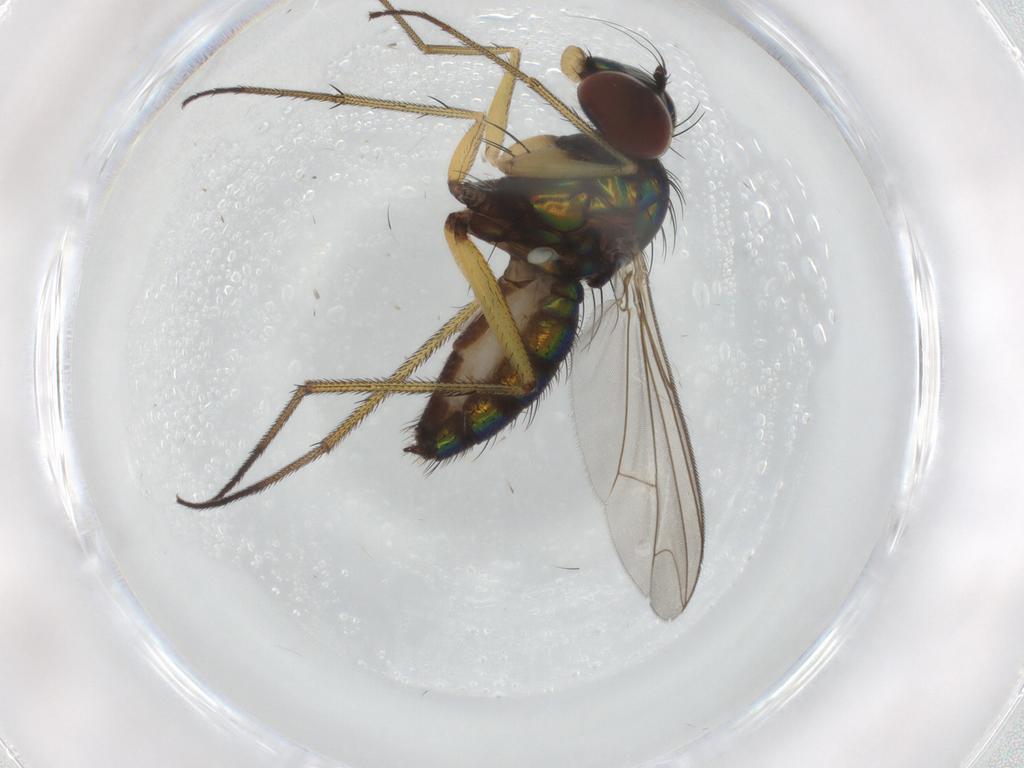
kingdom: Animalia
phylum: Arthropoda
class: Insecta
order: Diptera
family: Dolichopodidae
